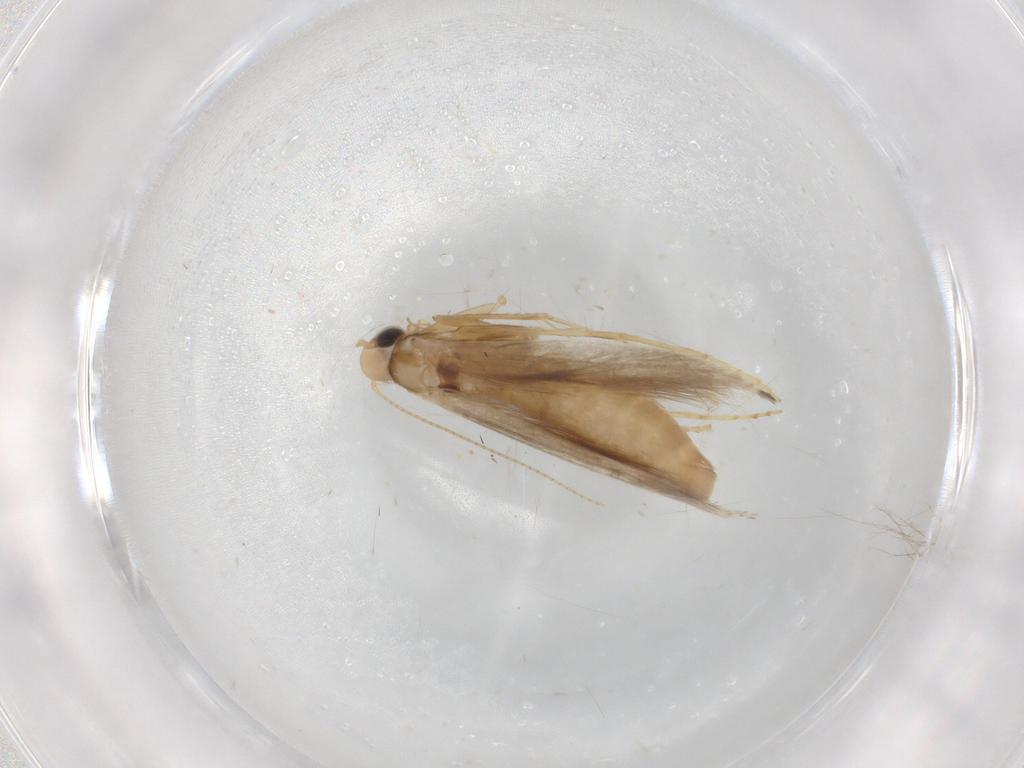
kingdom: Animalia
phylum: Arthropoda
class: Insecta
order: Lepidoptera
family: Gracillariidae
